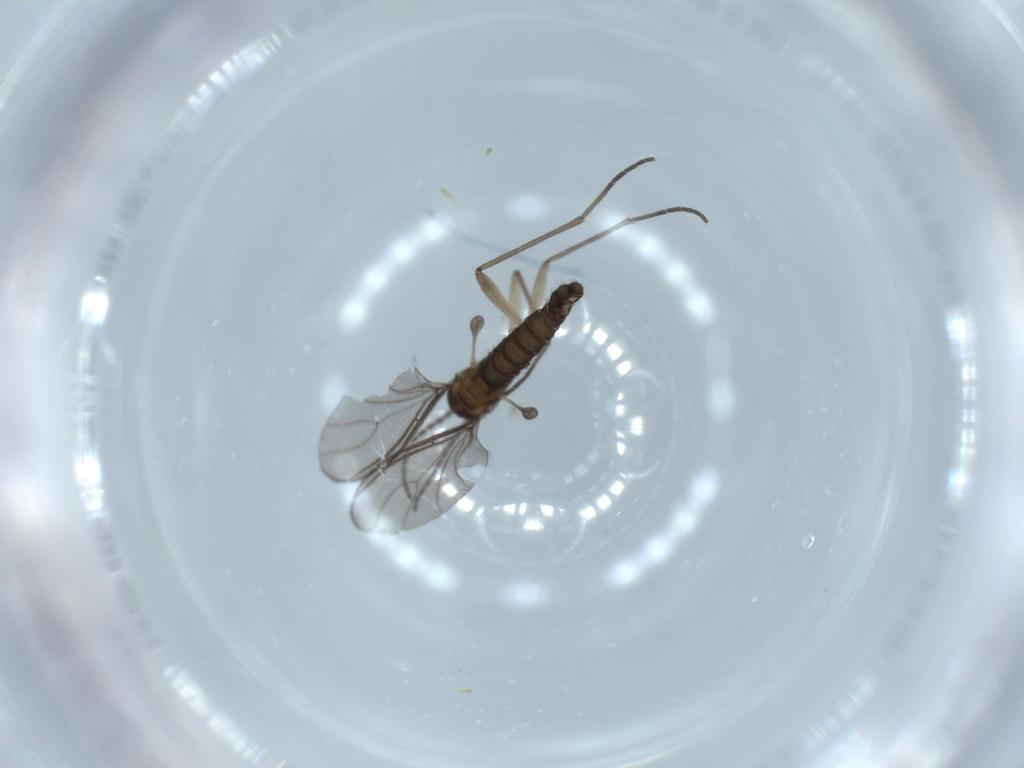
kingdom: Animalia
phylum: Arthropoda
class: Insecta
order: Diptera
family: Sciaridae
